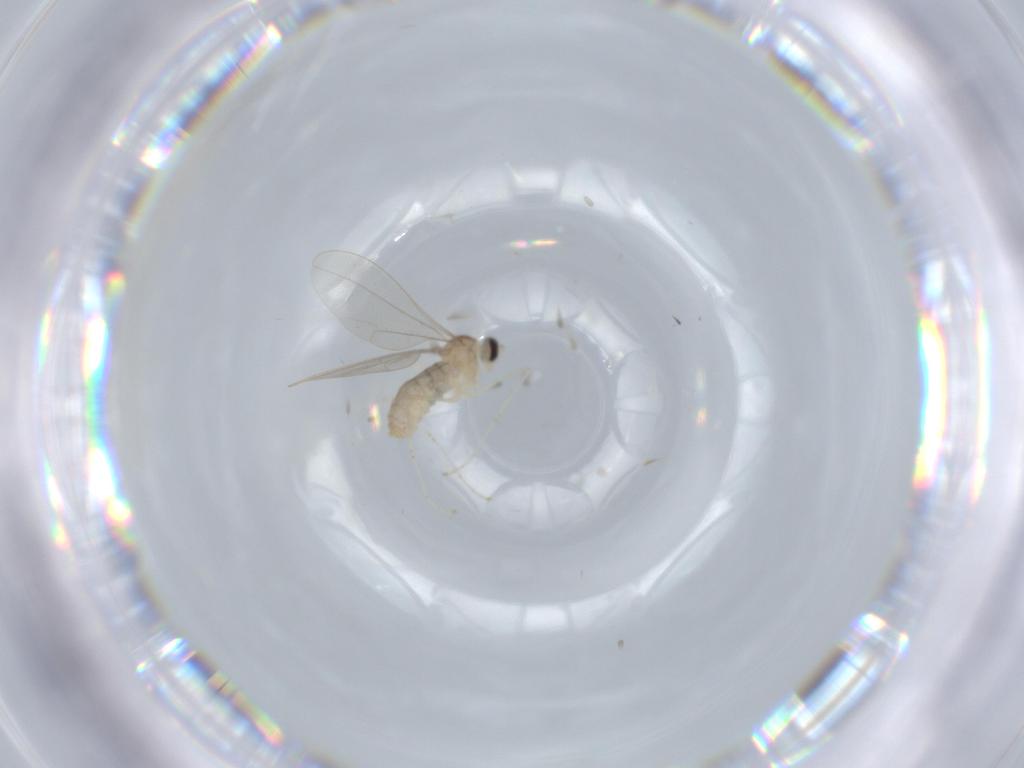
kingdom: Animalia
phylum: Arthropoda
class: Insecta
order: Diptera
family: Cecidomyiidae
